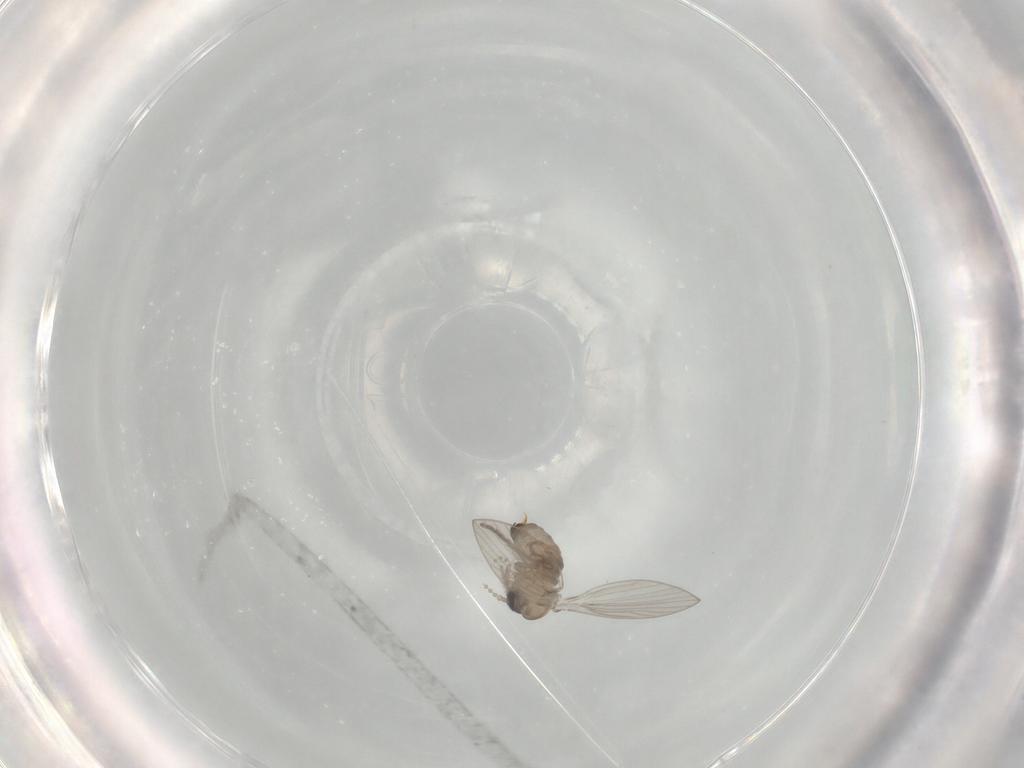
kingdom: Animalia
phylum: Arthropoda
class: Insecta
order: Diptera
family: Psychodidae
